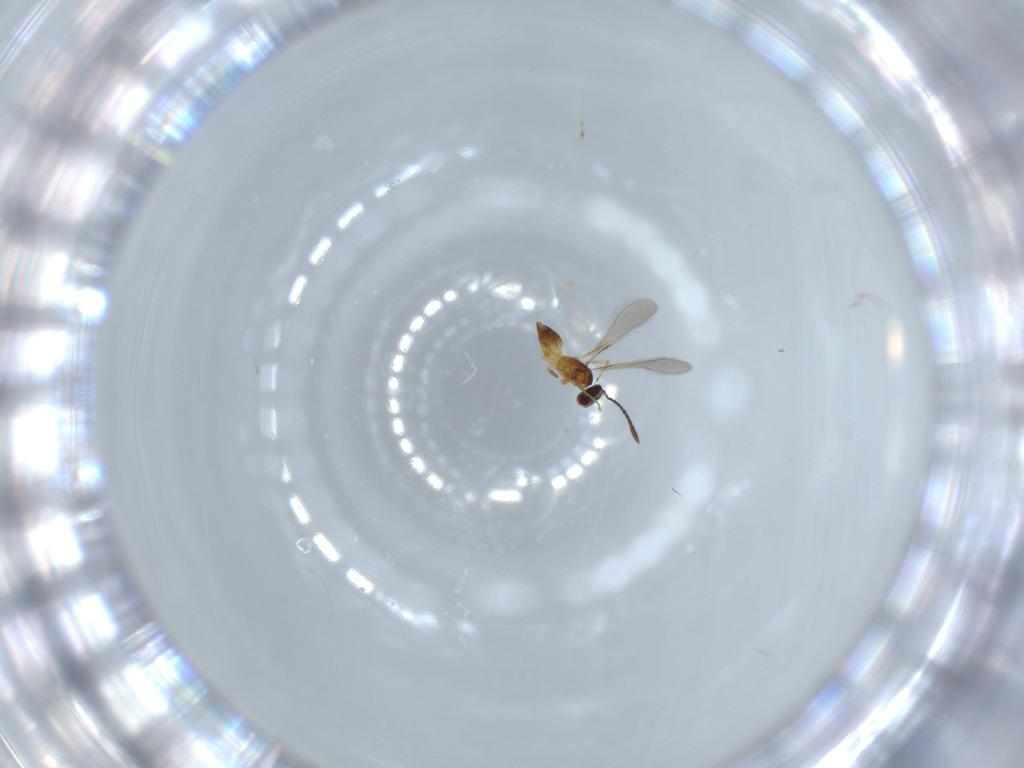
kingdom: Animalia
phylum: Arthropoda
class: Insecta
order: Hymenoptera
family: Mymaridae
